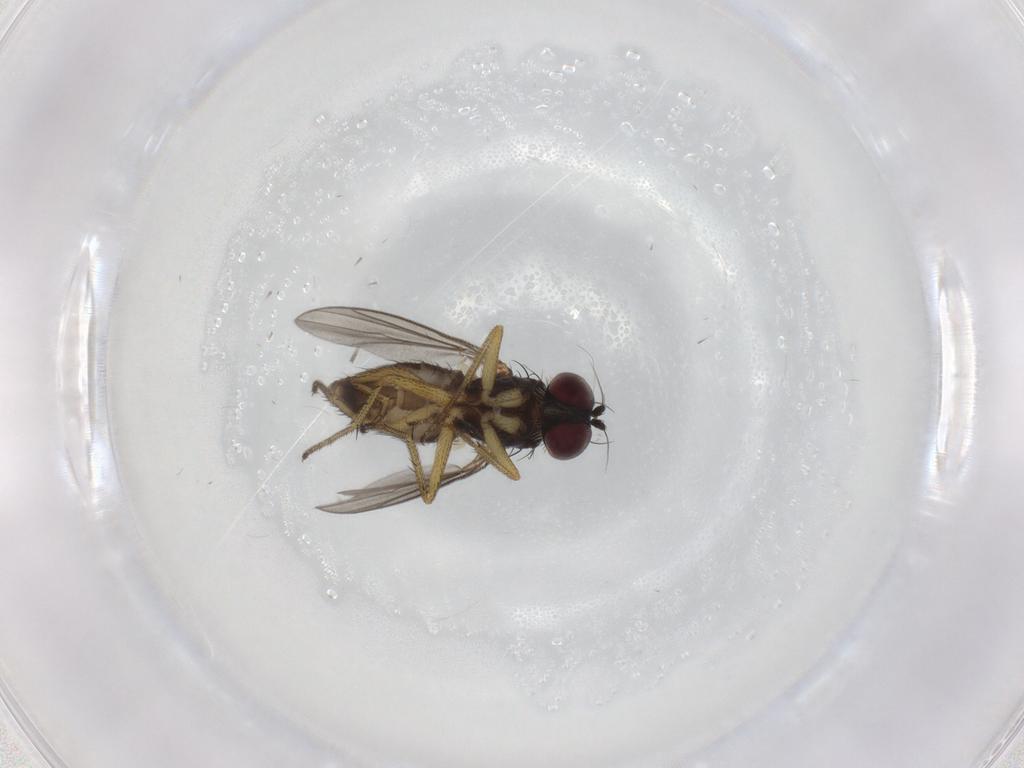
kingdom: Animalia
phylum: Arthropoda
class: Insecta
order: Diptera
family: Dolichopodidae
